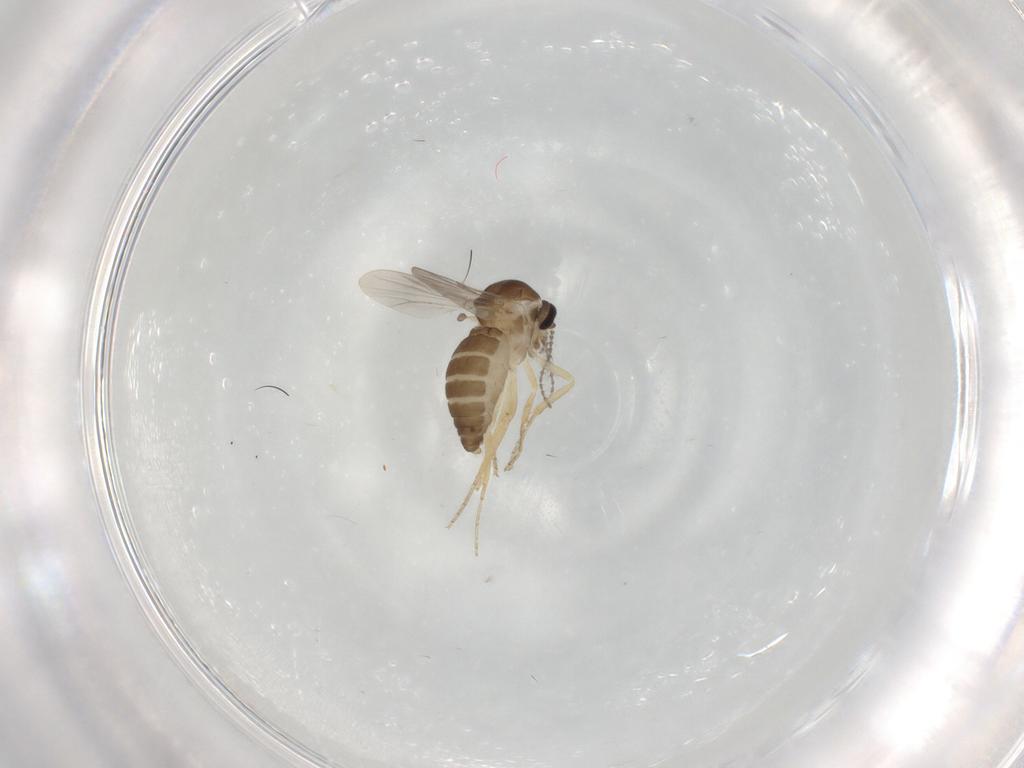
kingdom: Animalia
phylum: Arthropoda
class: Insecta
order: Diptera
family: Ceratopogonidae
